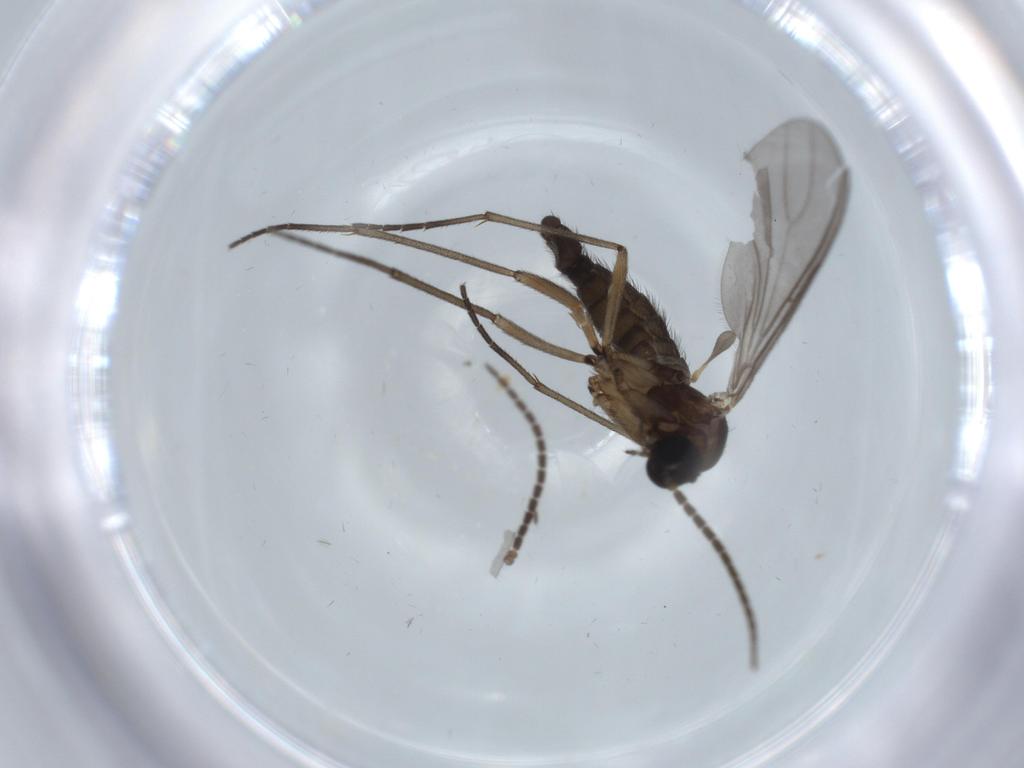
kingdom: Animalia
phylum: Arthropoda
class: Insecta
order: Diptera
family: Sciaridae
